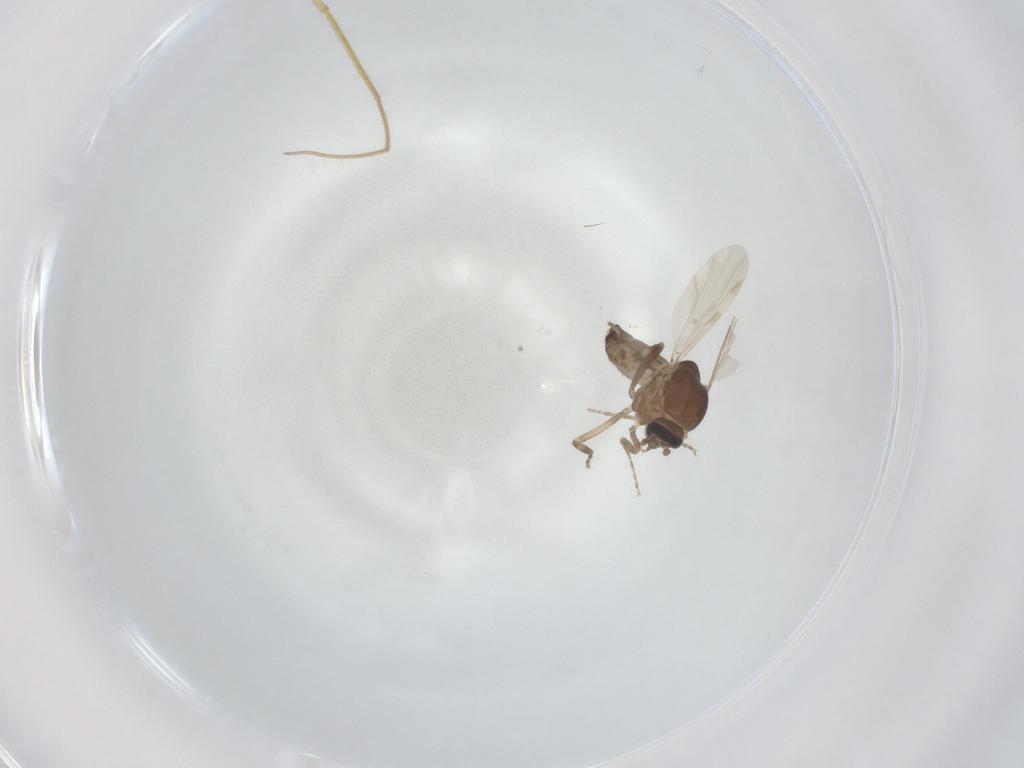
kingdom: Animalia
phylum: Arthropoda
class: Insecta
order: Diptera
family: Ceratopogonidae
